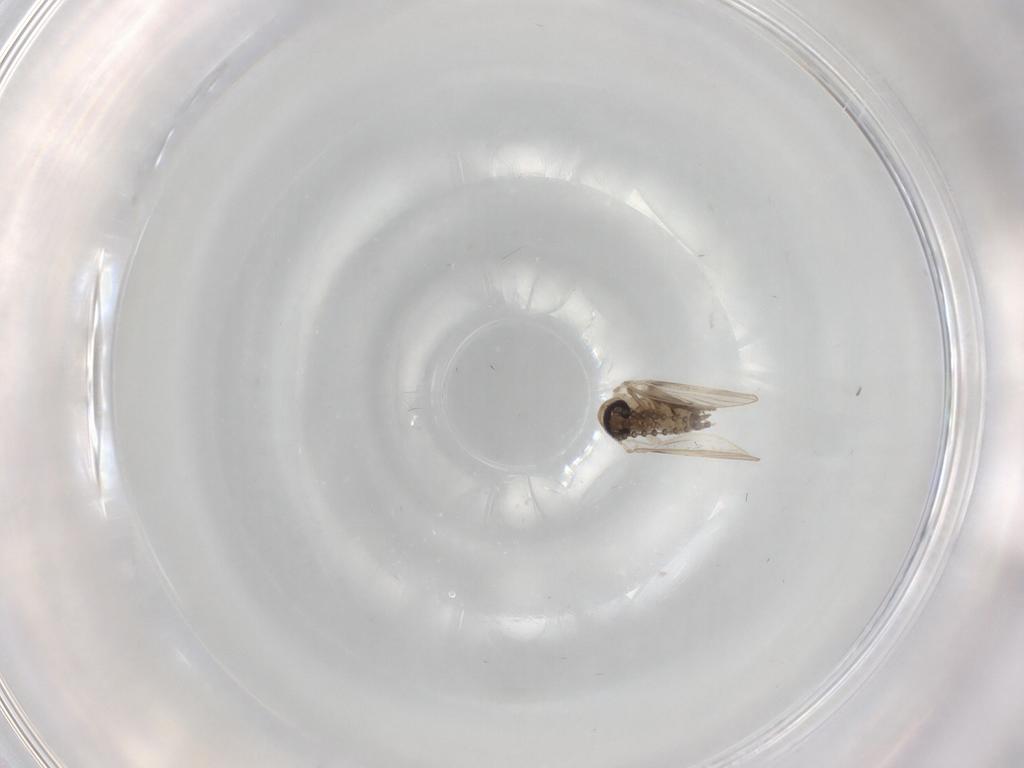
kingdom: Animalia
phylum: Arthropoda
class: Insecta
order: Diptera
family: Psychodidae
